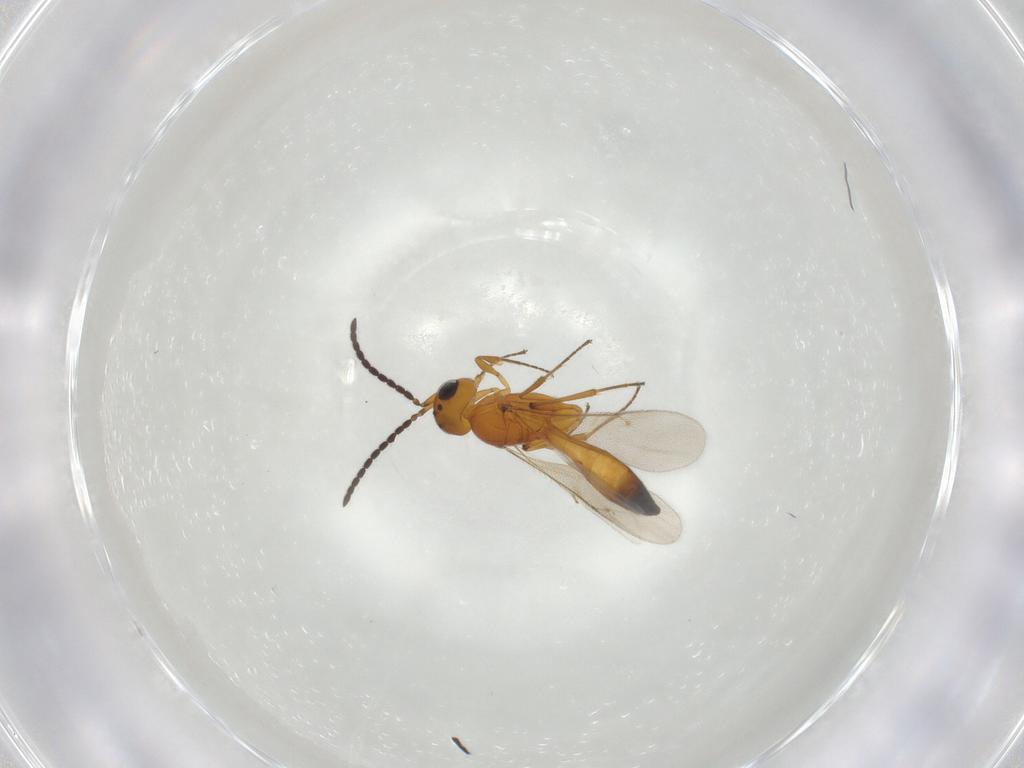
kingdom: Animalia
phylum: Arthropoda
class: Insecta
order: Hymenoptera
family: Scelionidae
